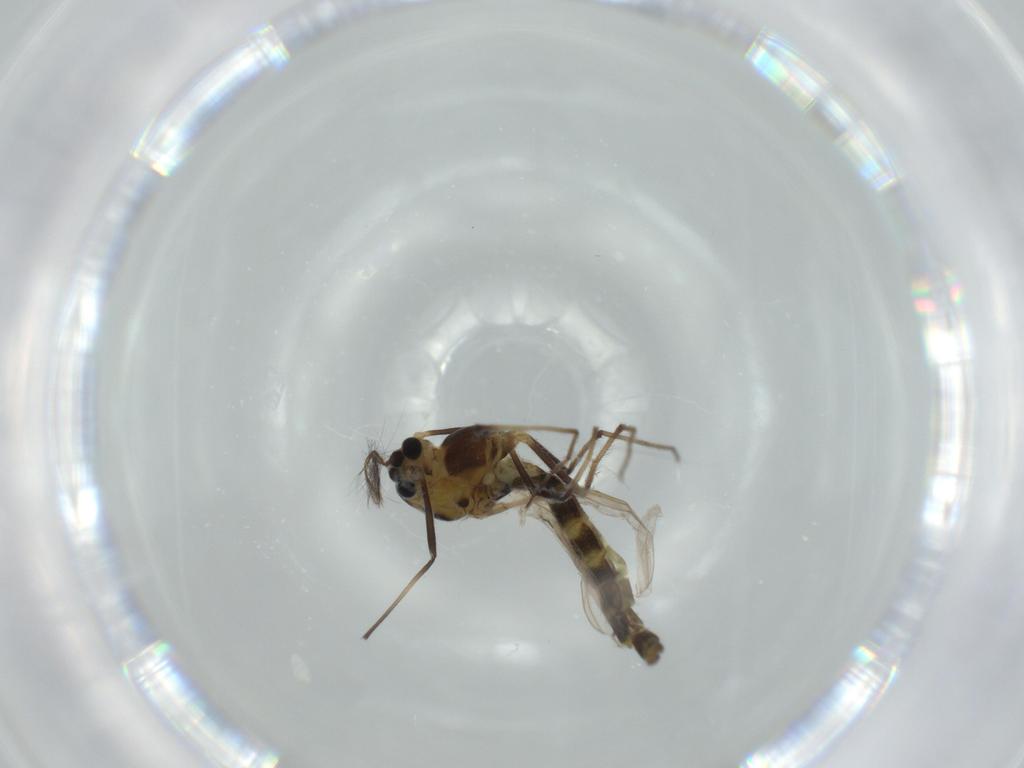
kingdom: Animalia
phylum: Arthropoda
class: Insecta
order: Diptera
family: Chironomidae
